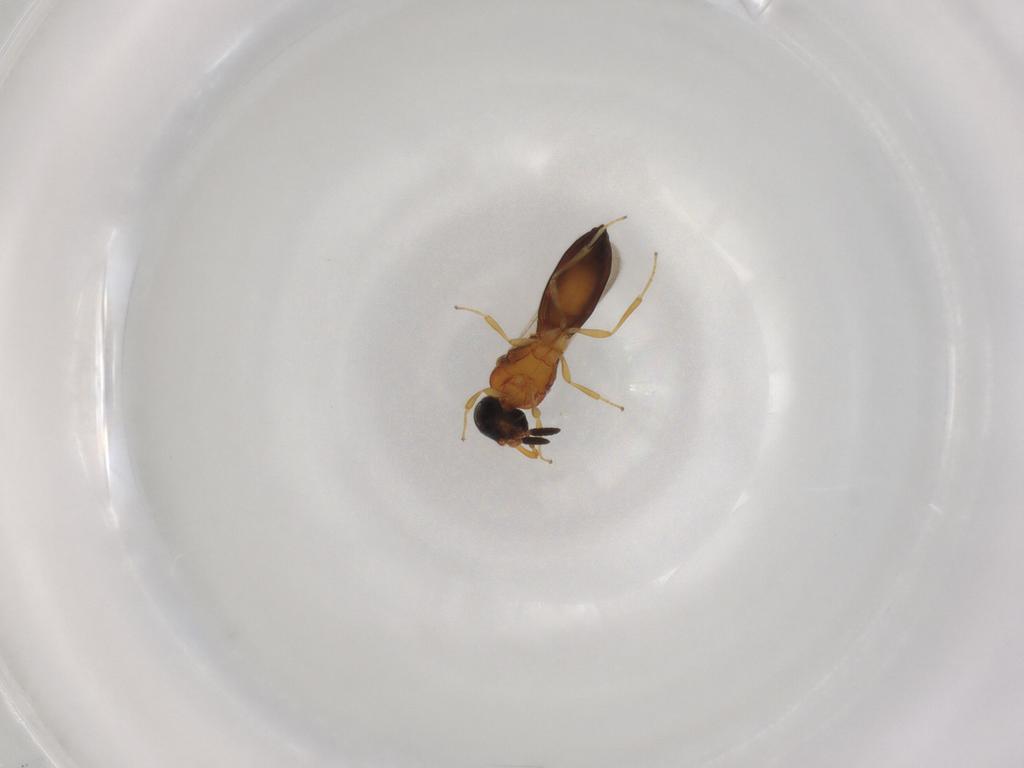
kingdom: Animalia
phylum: Arthropoda
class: Insecta
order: Hymenoptera
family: Scelionidae
